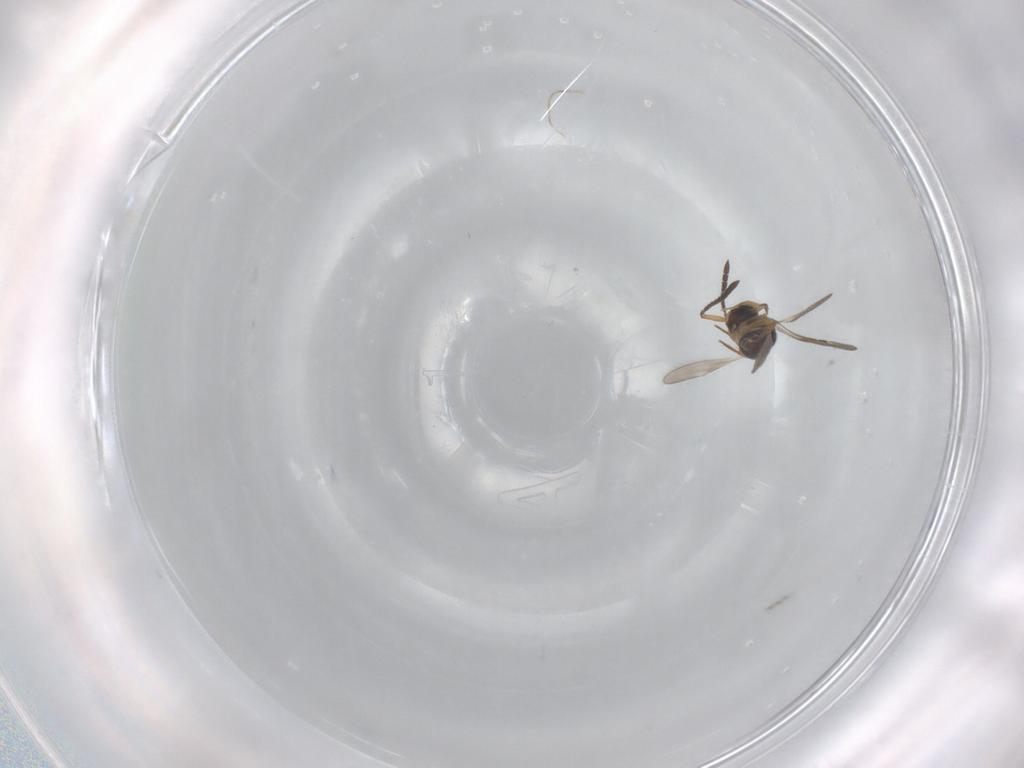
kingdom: Animalia
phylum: Arthropoda
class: Insecta
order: Hymenoptera
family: Ceraphronidae
